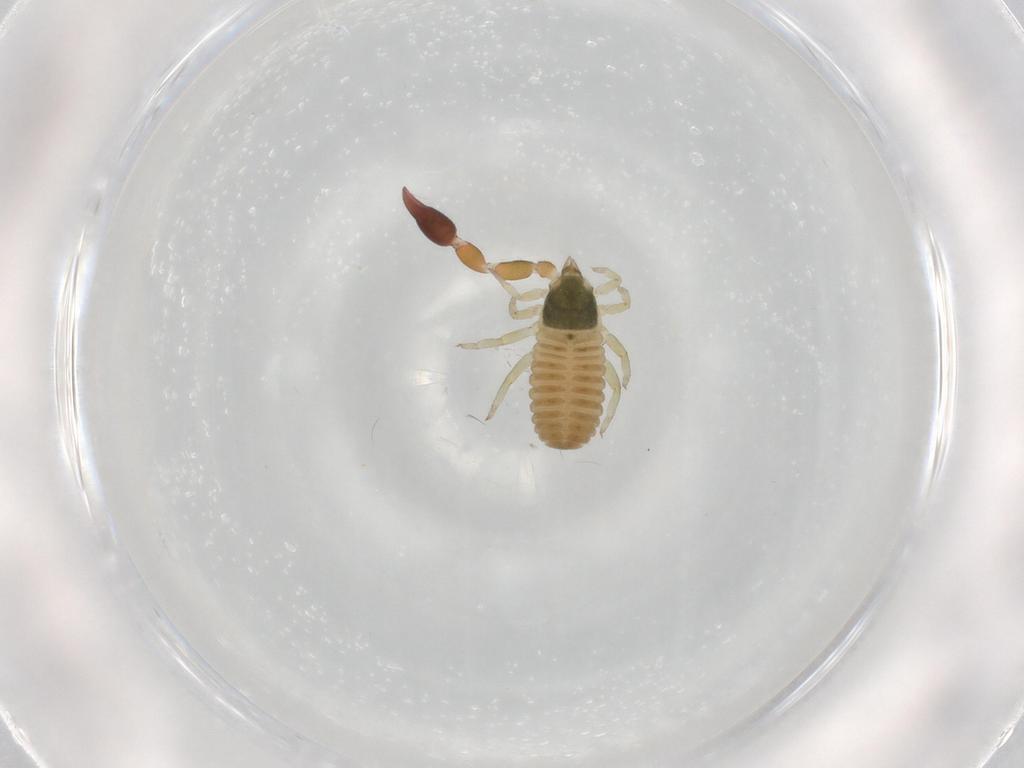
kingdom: Animalia
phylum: Arthropoda
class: Arachnida
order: Pseudoscorpiones
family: Chernetidae
